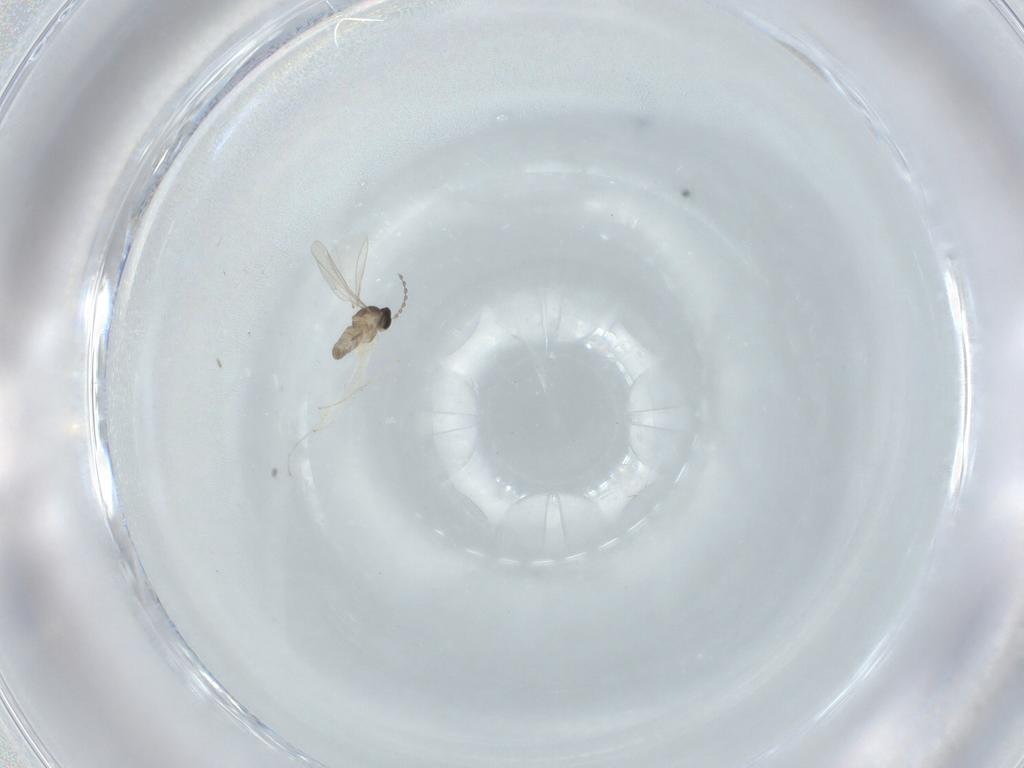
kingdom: Animalia
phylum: Arthropoda
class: Insecta
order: Diptera
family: Cecidomyiidae
